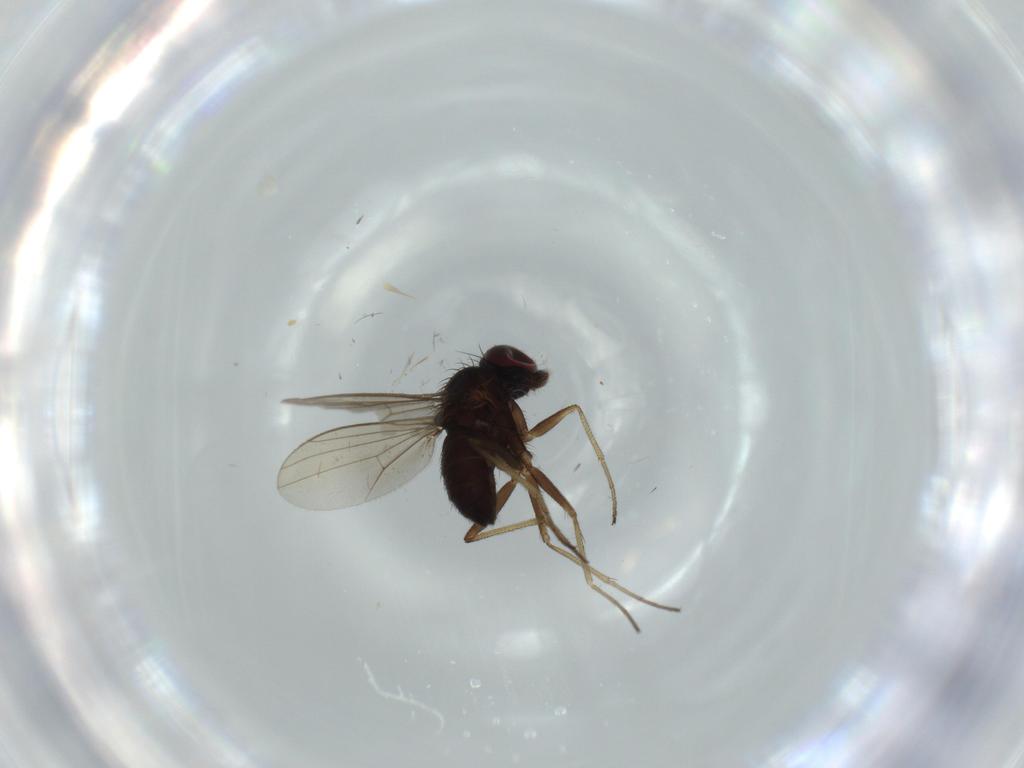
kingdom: Animalia
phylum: Arthropoda
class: Insecta
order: Diptera
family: Dolichopodidae
